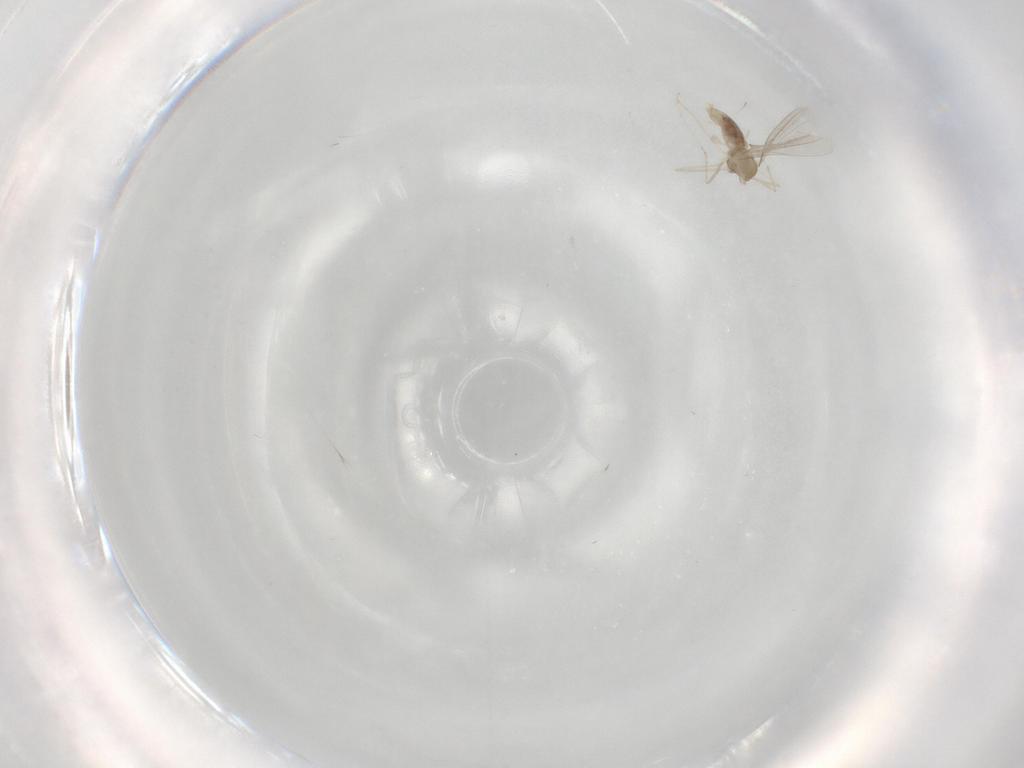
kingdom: Animalia
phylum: Arthropoda
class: Insecta
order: Diptera
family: Cecidomyiidae
